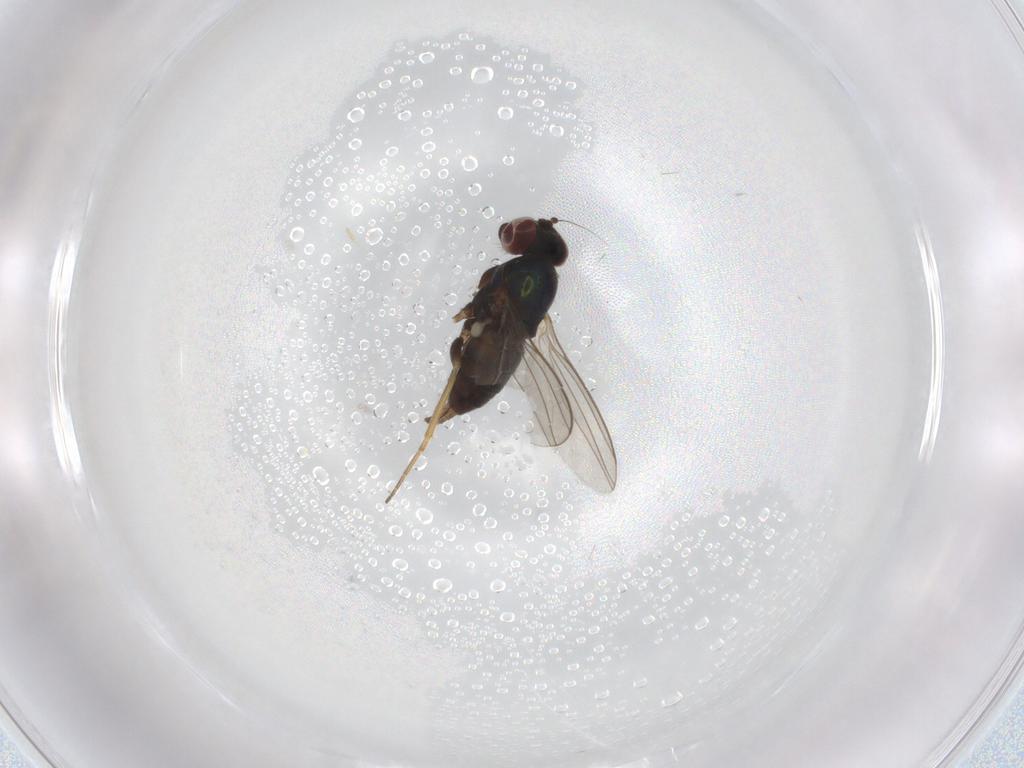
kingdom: Animalia
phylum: Arthropoda
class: Insecta
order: Diptera
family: Dolichopodidae
